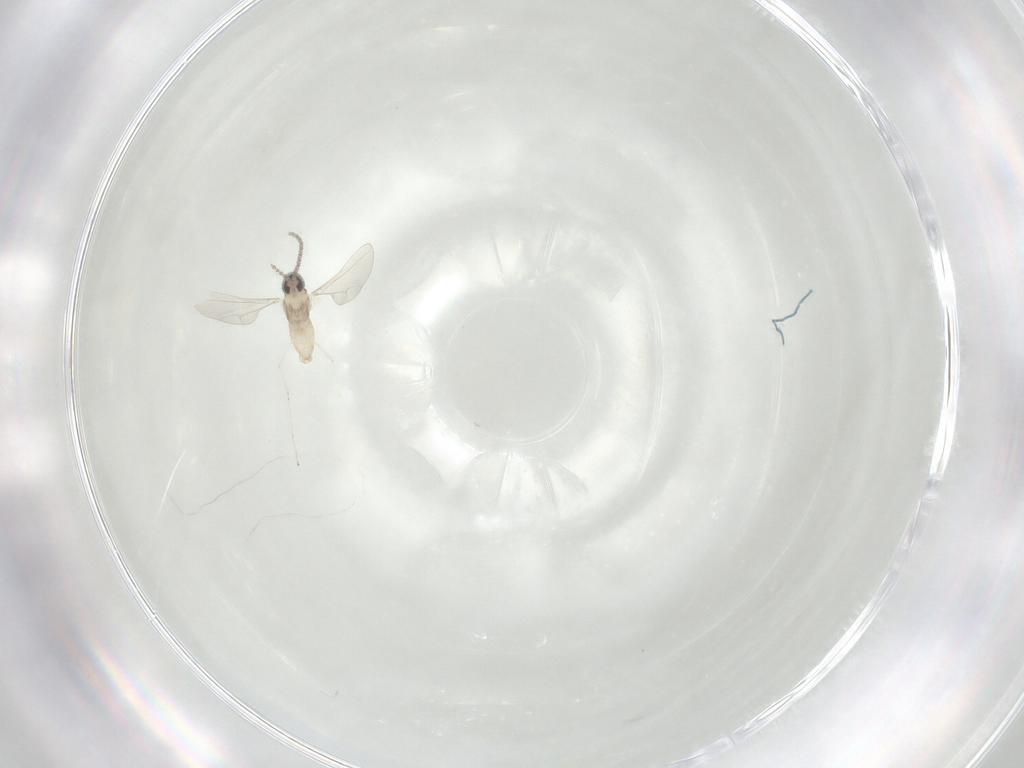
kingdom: Animalia
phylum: Arthropoda
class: Insecta
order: Diptera
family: Cecidomyiidae
